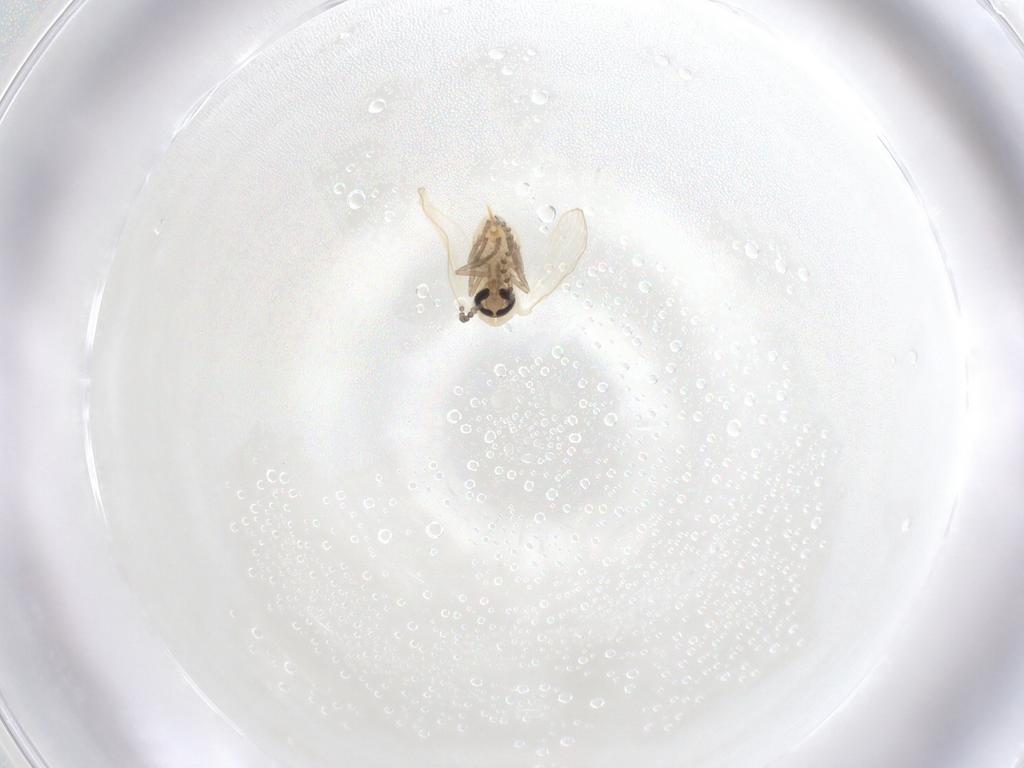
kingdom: Animalia
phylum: Arthropoda
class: Insecta
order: Diptera
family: Psychodidae
